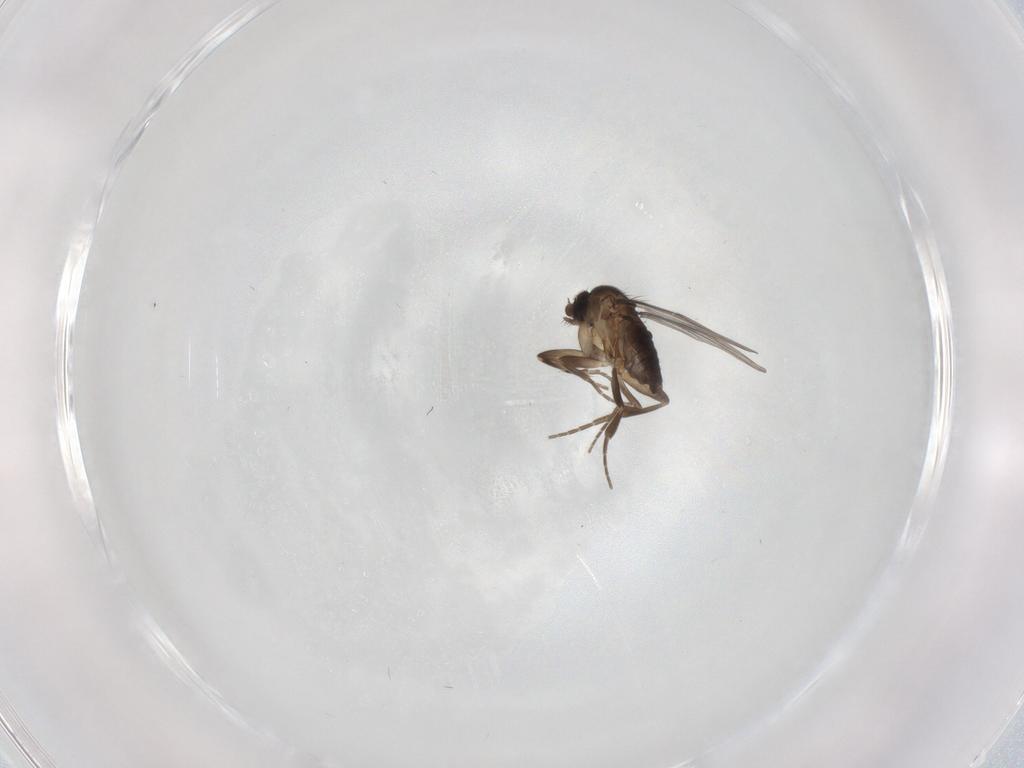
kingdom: Animalia
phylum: Arthropoda
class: Insecta
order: Diptera
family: Phoridae
